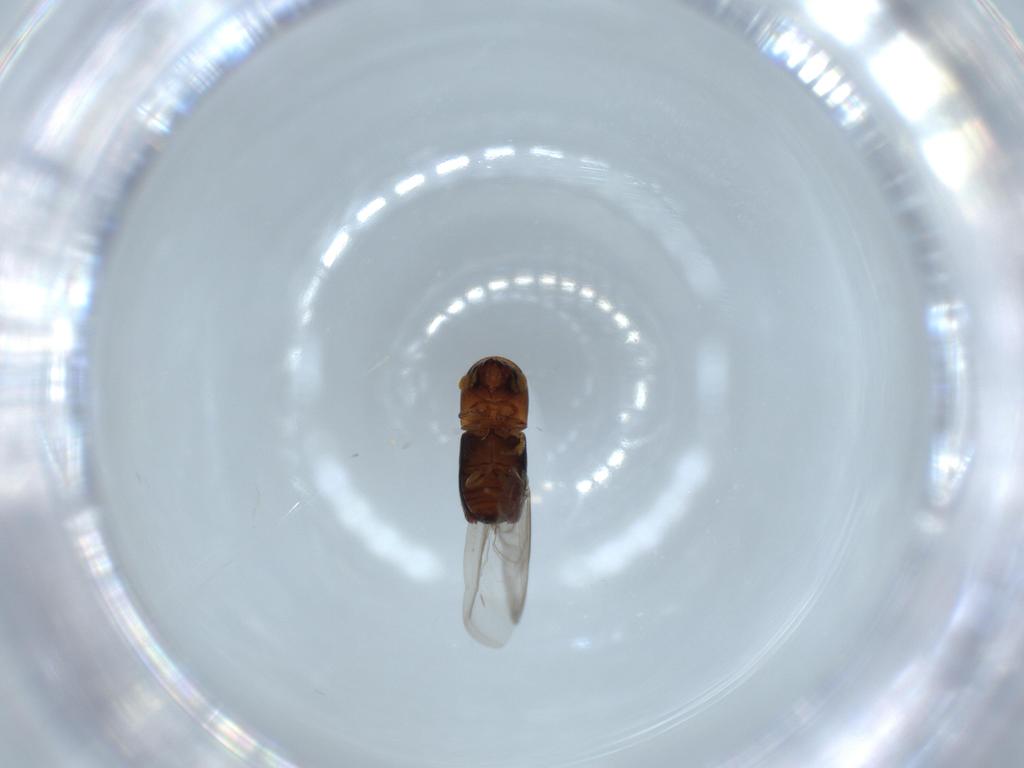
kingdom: Animalia
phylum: Arthropoda
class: Insecta
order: Coleoptera
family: Curculionidae
